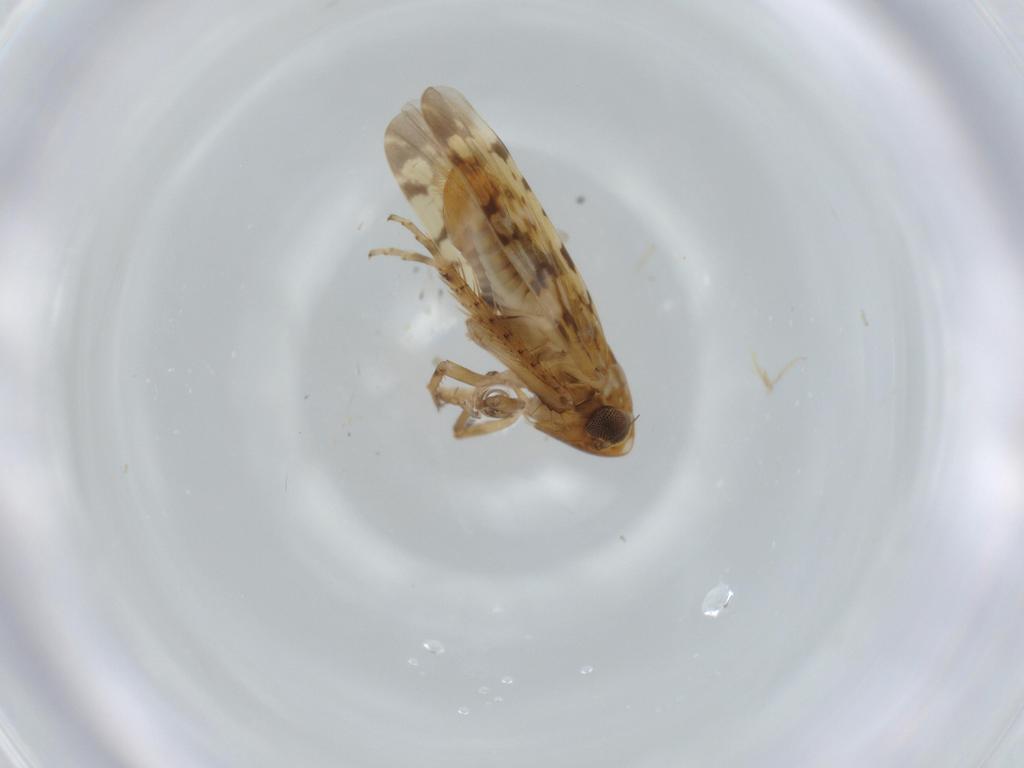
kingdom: Animalia
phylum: Arthropoda
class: Insecta
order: Hemiptera
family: Cicadellidae
